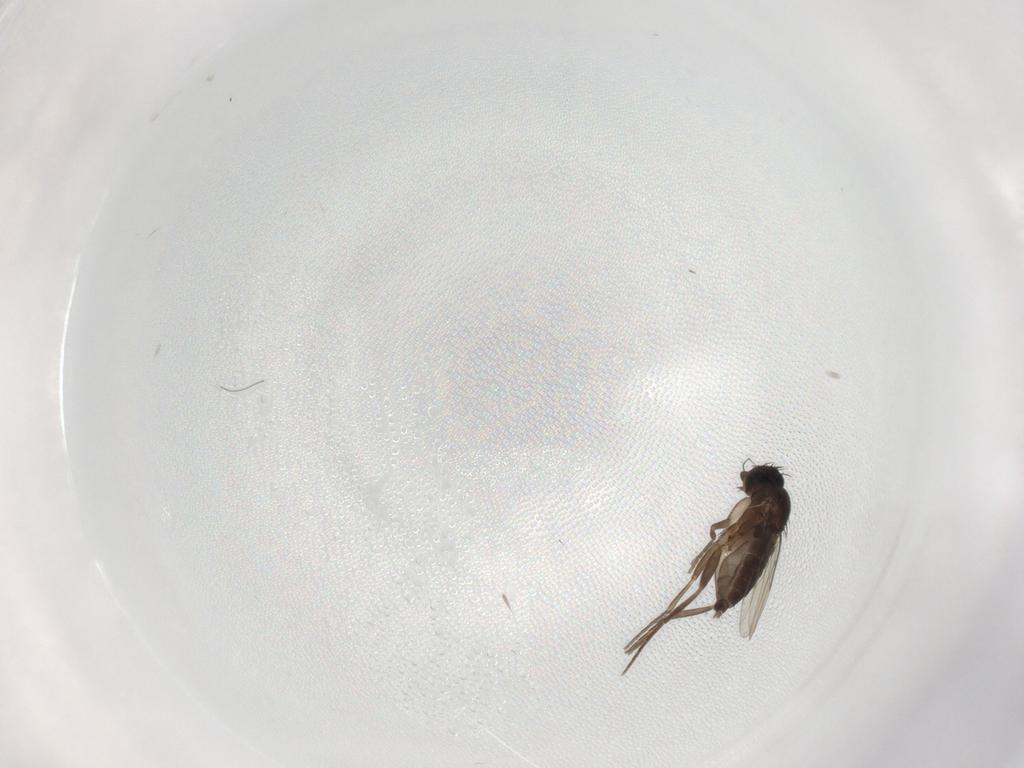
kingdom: Animalia
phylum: Arthropoda
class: Insecta
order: Diptera
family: Phoridae
